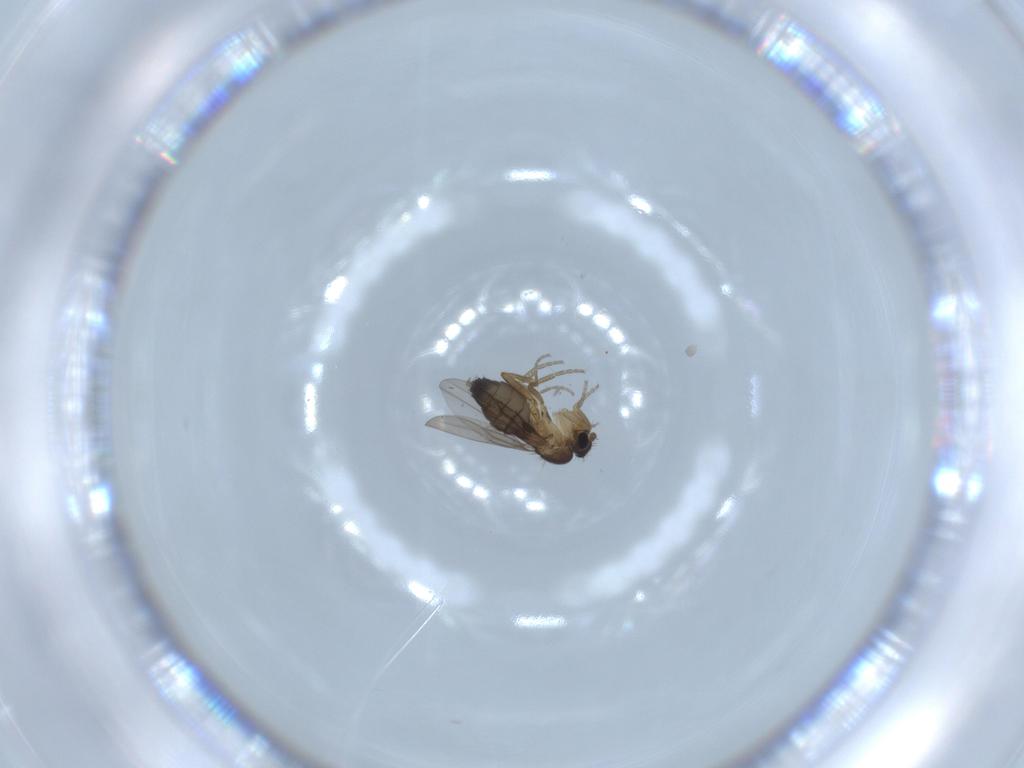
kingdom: Animalia
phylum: Arthropoda
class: Insecta
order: Diptera
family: Phoridae
